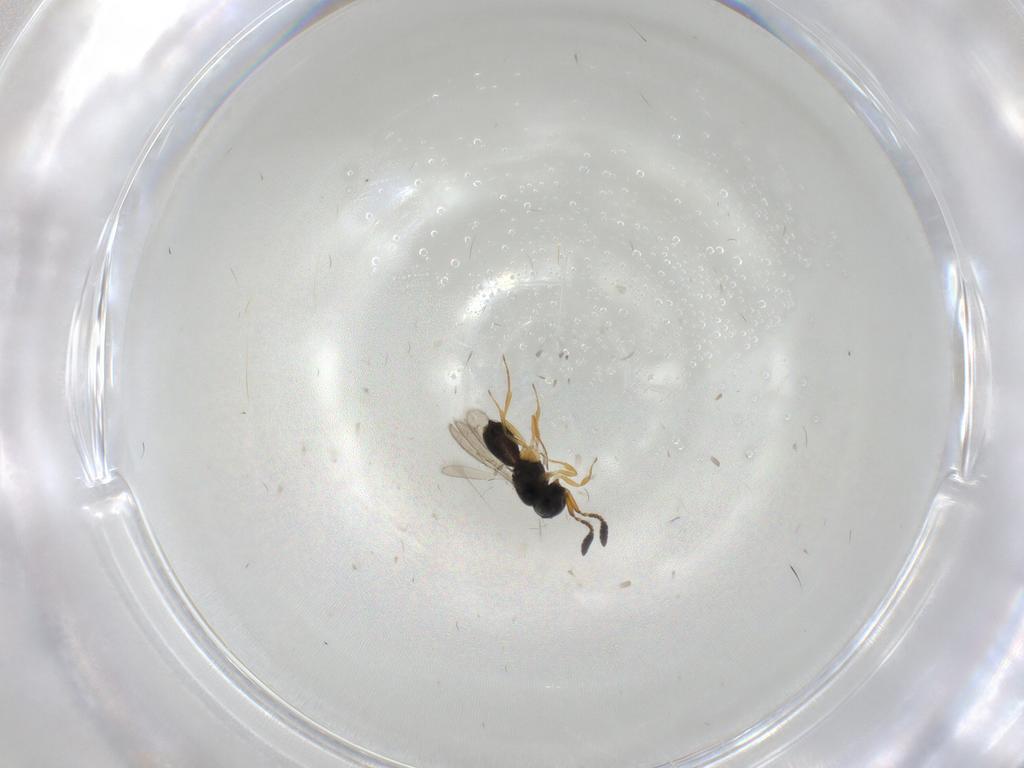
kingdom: Animalia
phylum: Arthropoda
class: Insecta
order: Hymenoptera
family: Scelionidae
